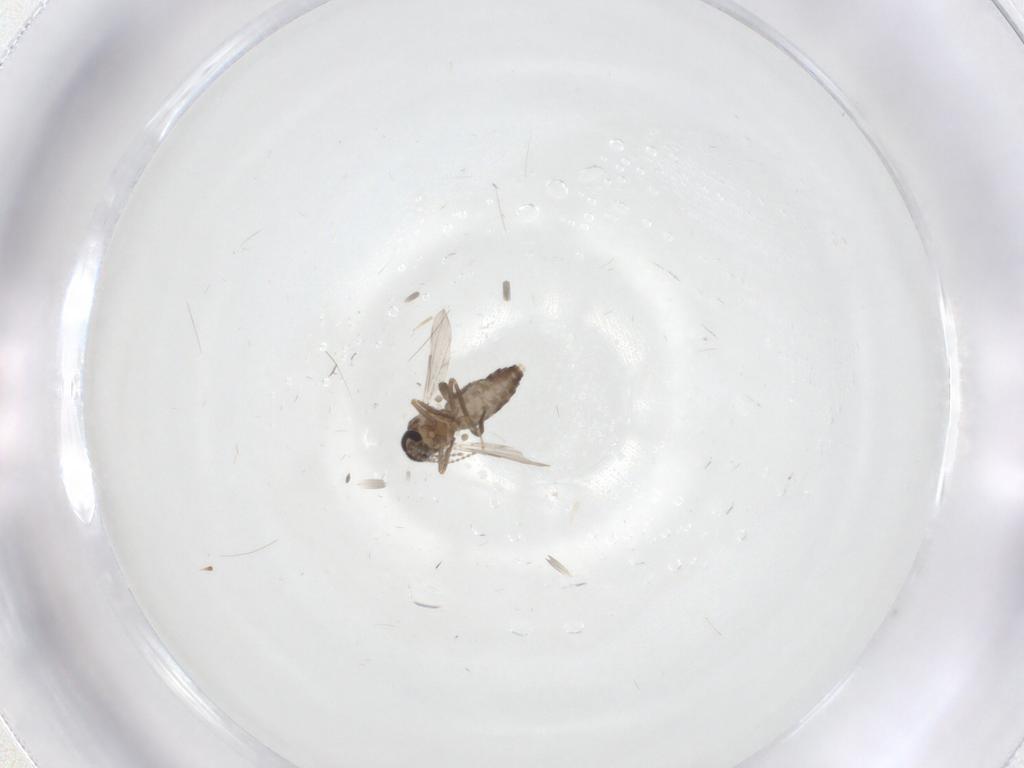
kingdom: Animalia
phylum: Arthropoda
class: Insecta
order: Diptera
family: Ceratopogonidae
